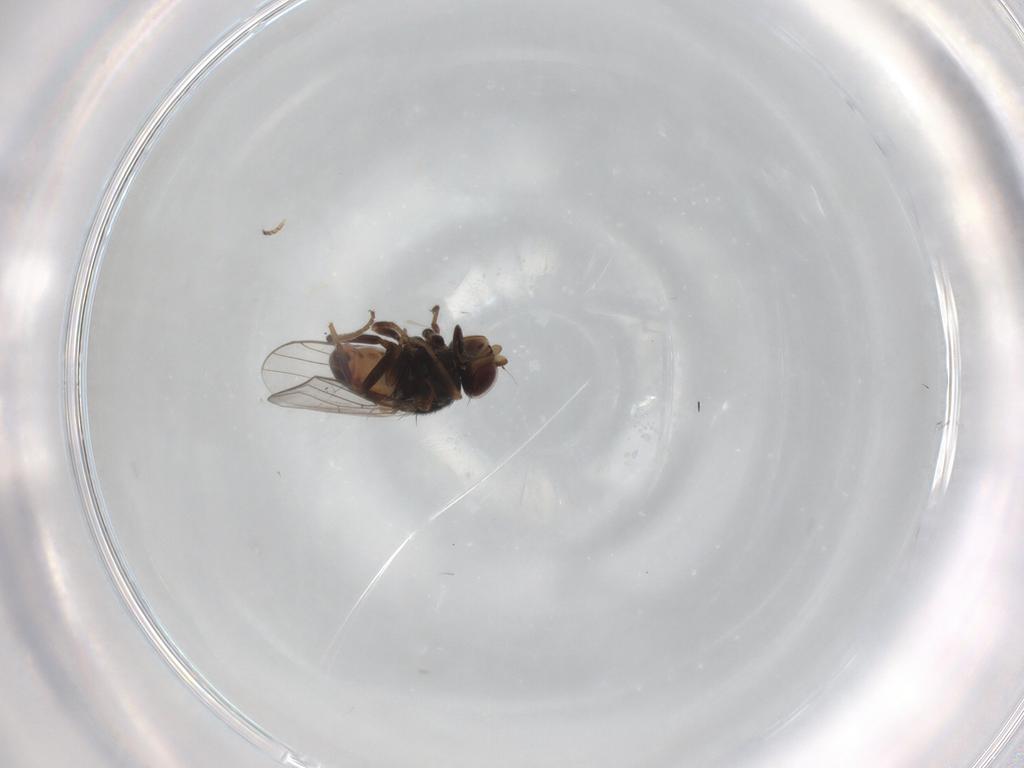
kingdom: Animalia
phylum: Arthropoda
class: Insecta
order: Diptera
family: Chloropidae
